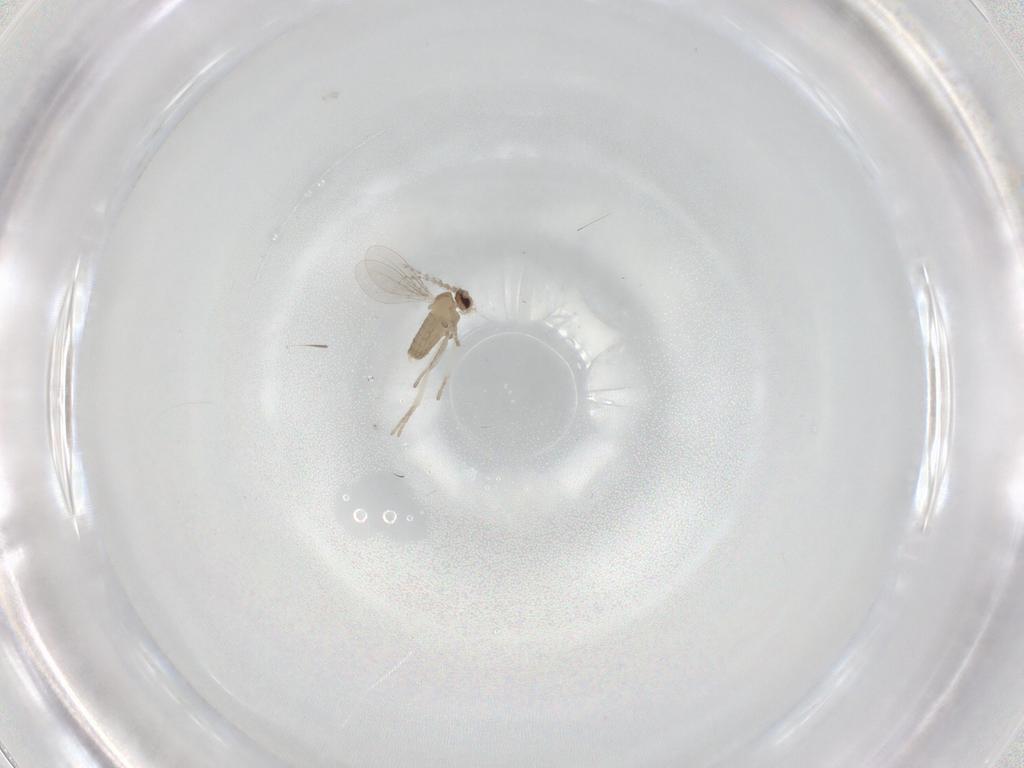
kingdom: Animalia
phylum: Arthropoda
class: Insecta
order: Diptera
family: Cecidomyiidae
